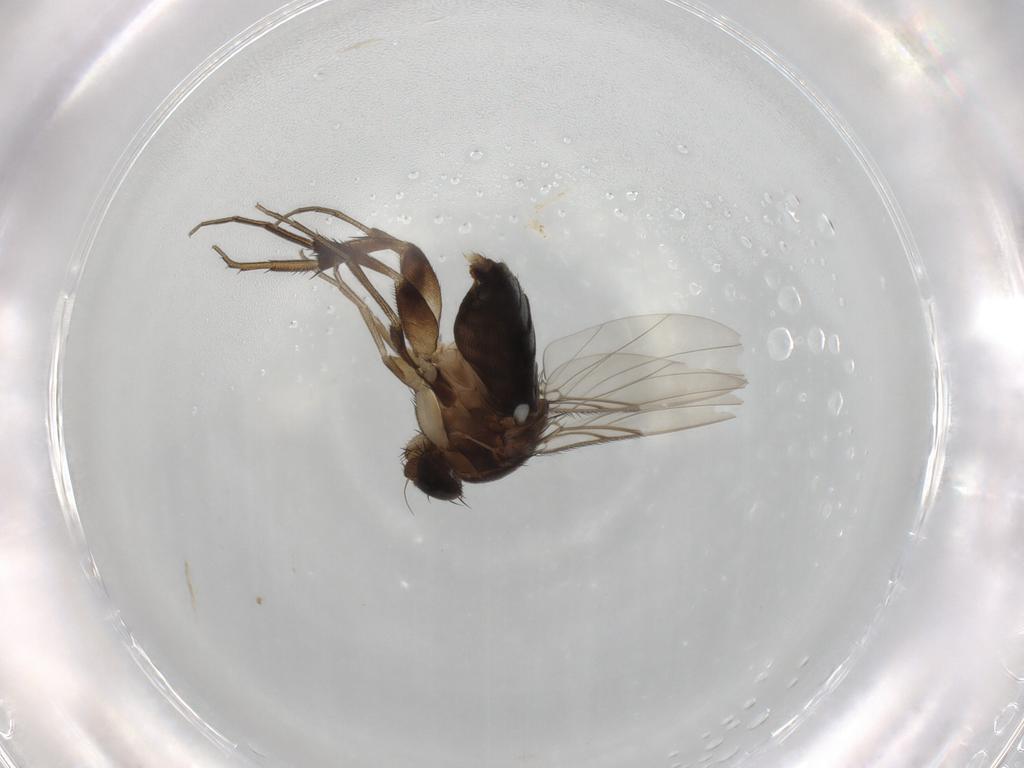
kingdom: Animalia
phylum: Arthropoda
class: Insecta
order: Diptera
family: Phoridae
